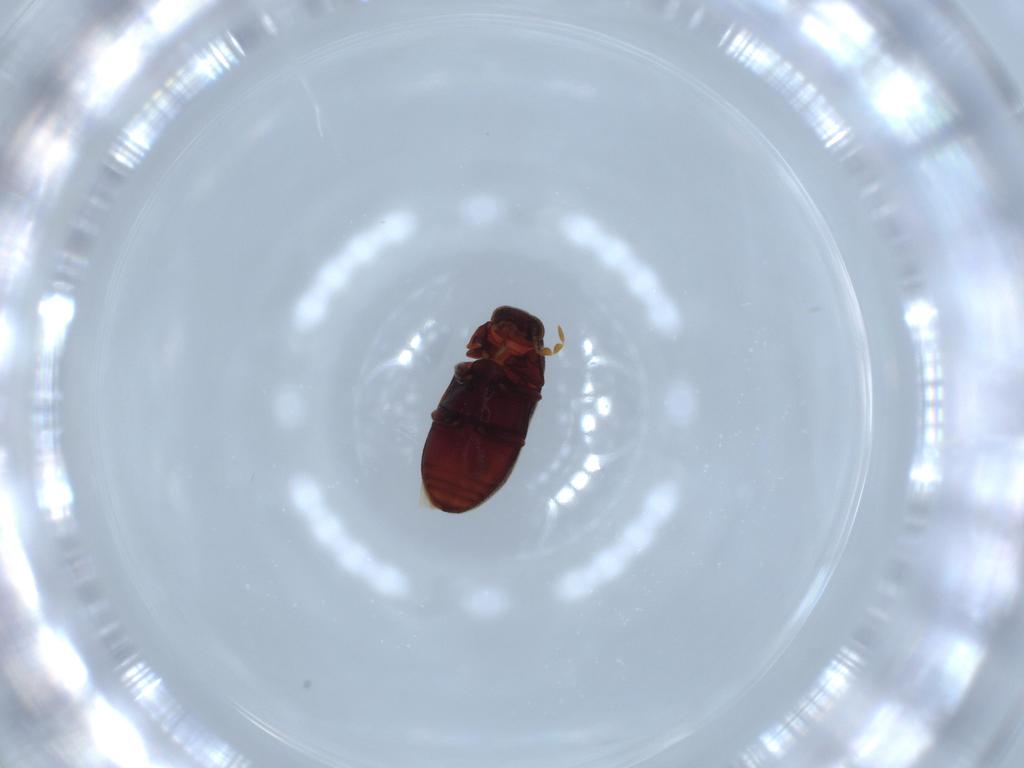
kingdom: Animalia
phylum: Arthropoda
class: Insecta
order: Coleoptera
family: Ptinidae
